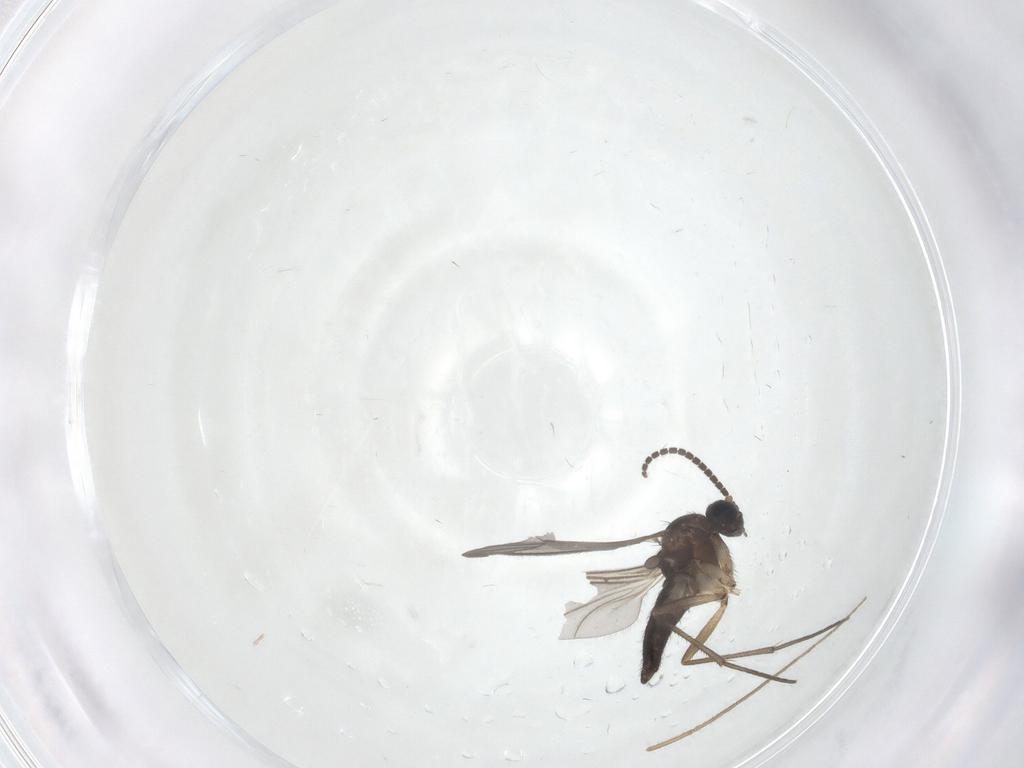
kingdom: Animalia
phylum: Arthropoda
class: Insecta
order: Diptera
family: Sciaridae
